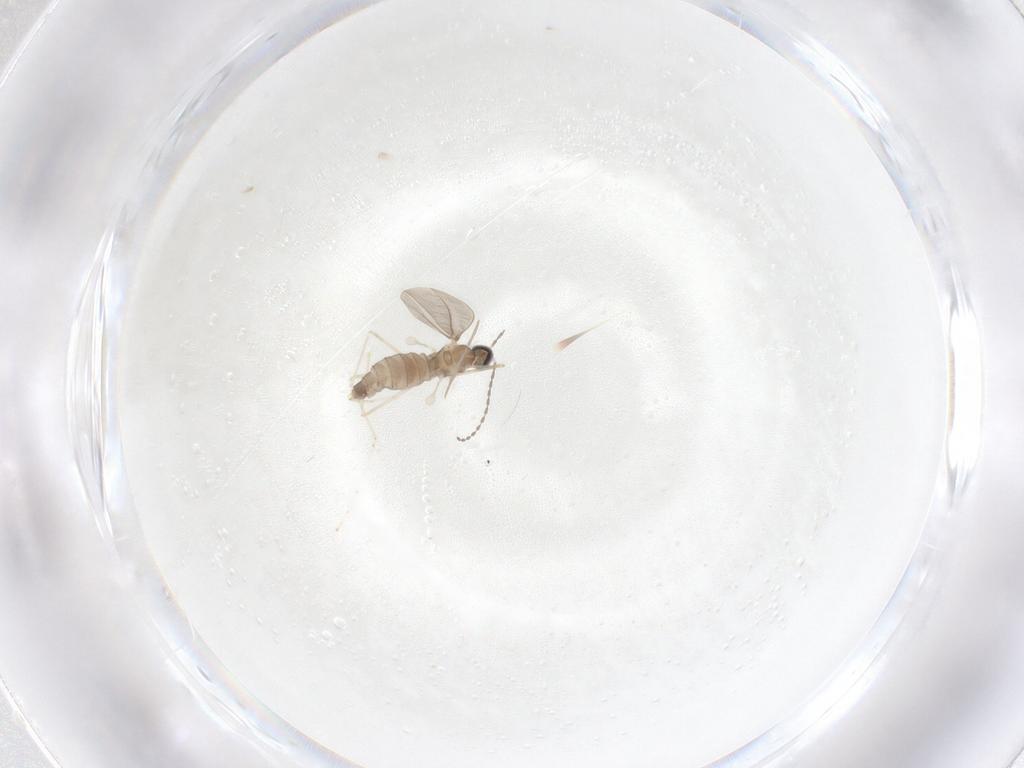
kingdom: Animalia
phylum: Arthropoda
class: Insecta
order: Diptera
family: Cecidomyiidae
